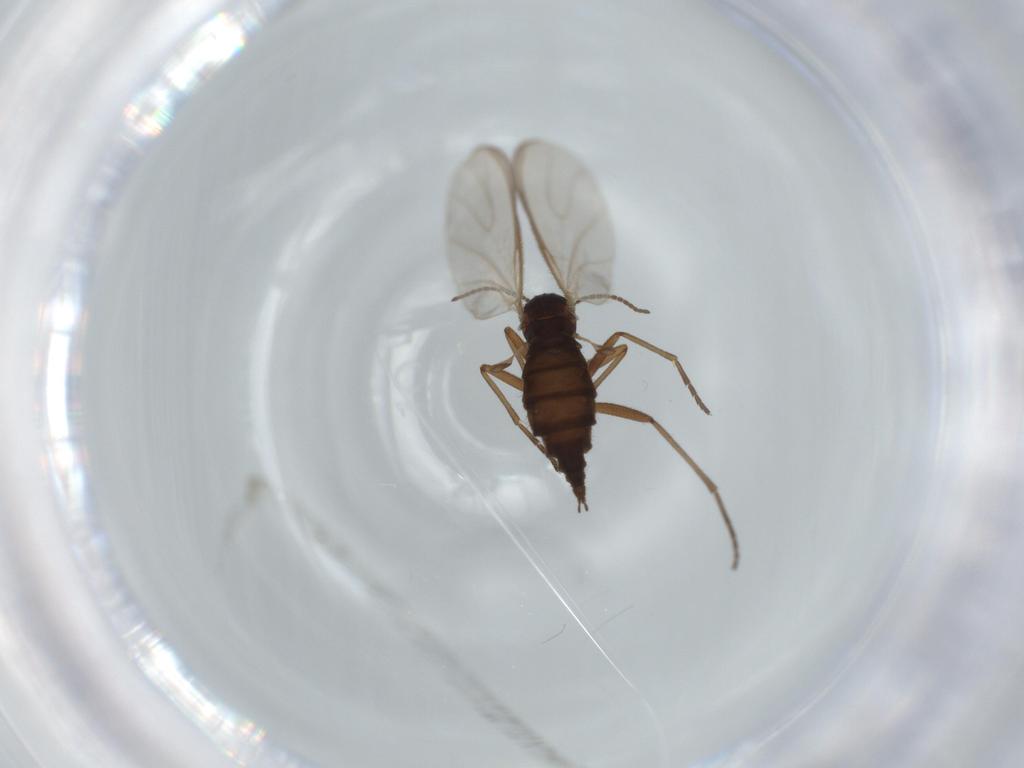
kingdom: Animalia
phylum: Arthropoda
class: Insecta
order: Diptera
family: Sciaridae
